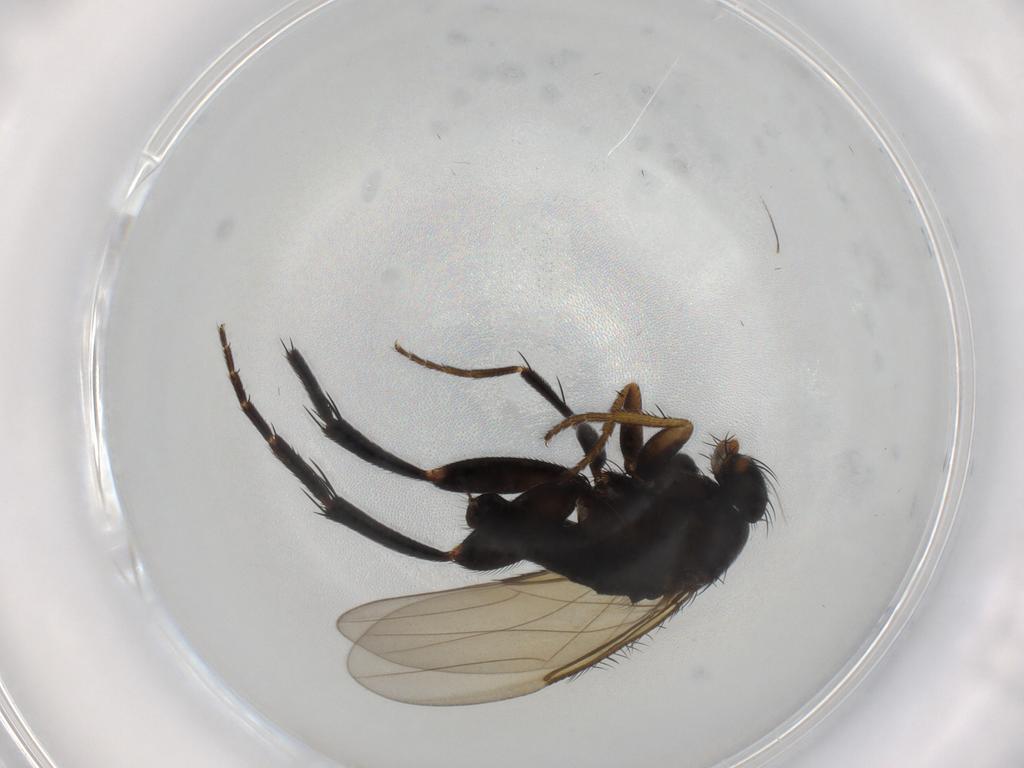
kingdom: Animalia
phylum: Arthropoda
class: Insecta
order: Diptera
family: Phoridae
